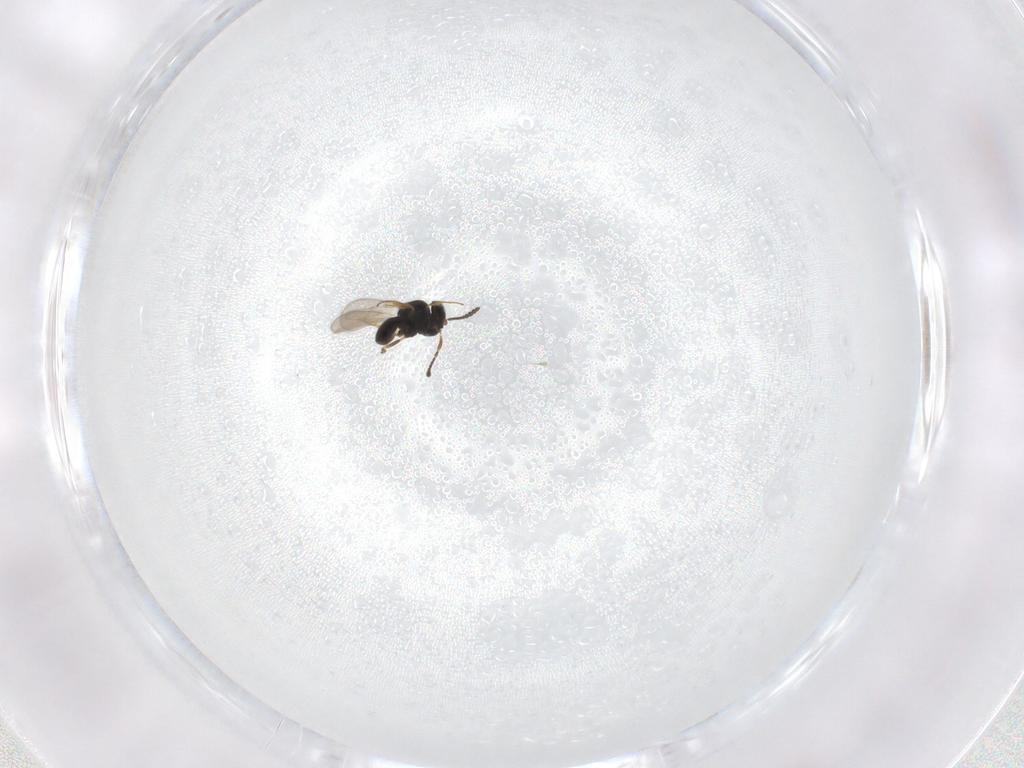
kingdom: Animalia
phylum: Arthropoda
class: Insecta
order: Hymenoptera
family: Scelionidae
